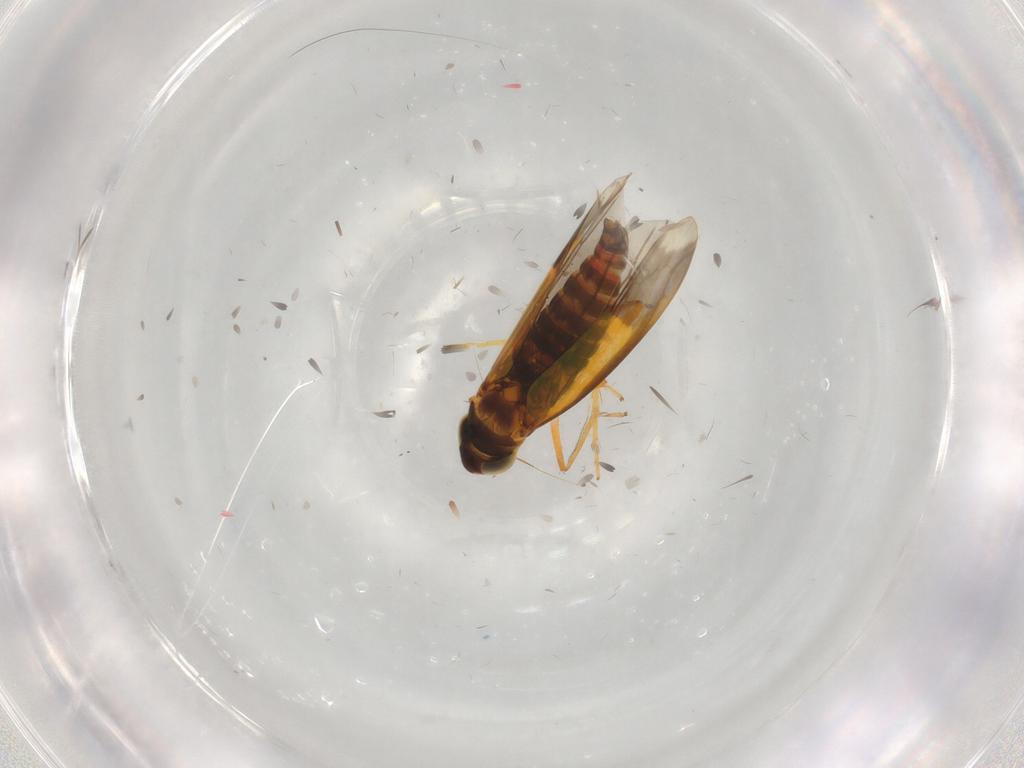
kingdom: Animalia
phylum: Arthropoda
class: Insecta
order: Hemiptera
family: Cicadellidae
